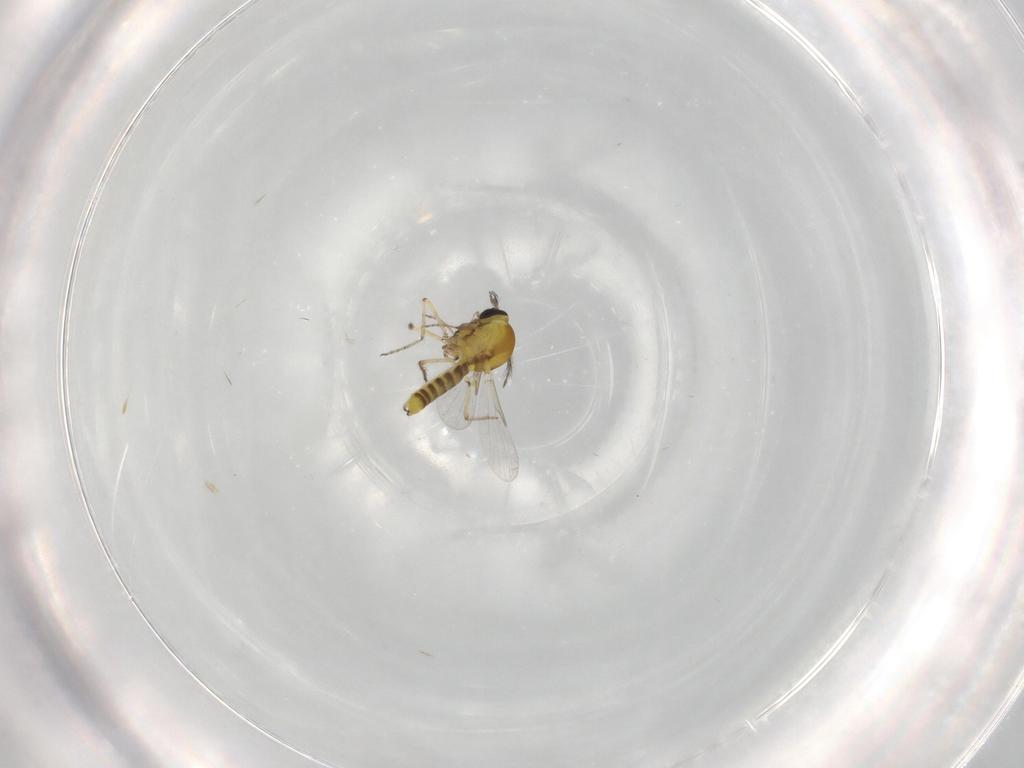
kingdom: Animalia
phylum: Arthropoda
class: Insecta
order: Diptera
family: Ceratopogonidae
